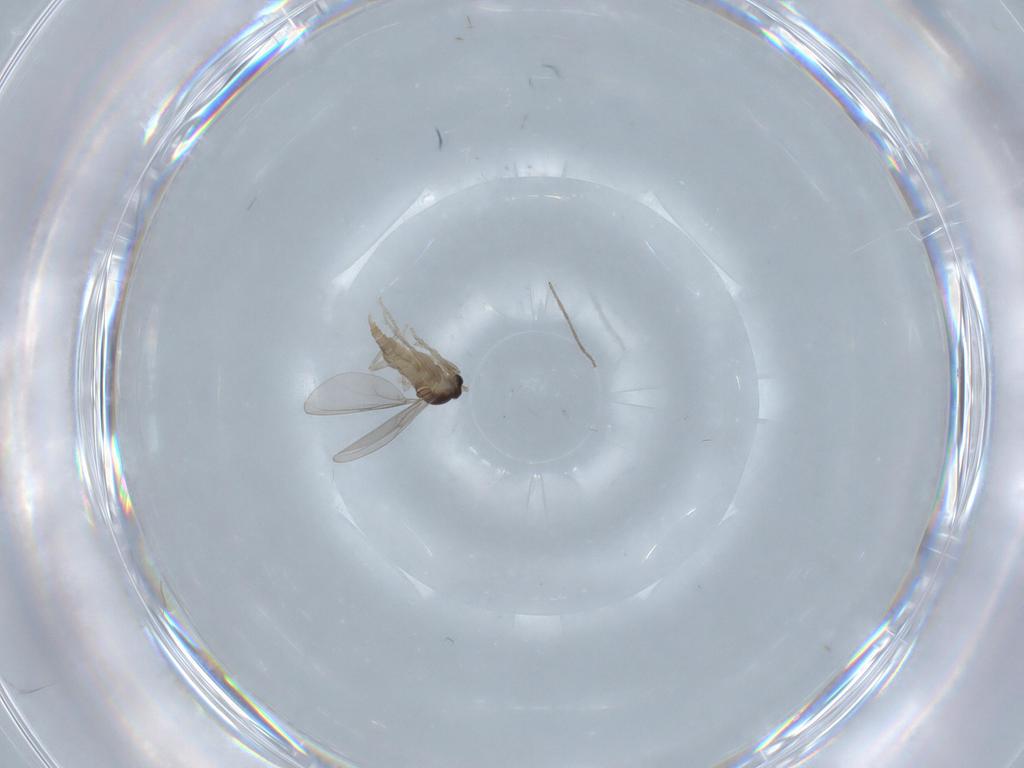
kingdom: Animalia
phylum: Arthropoda
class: Insecta
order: Diptera
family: Cecidomyiidae
